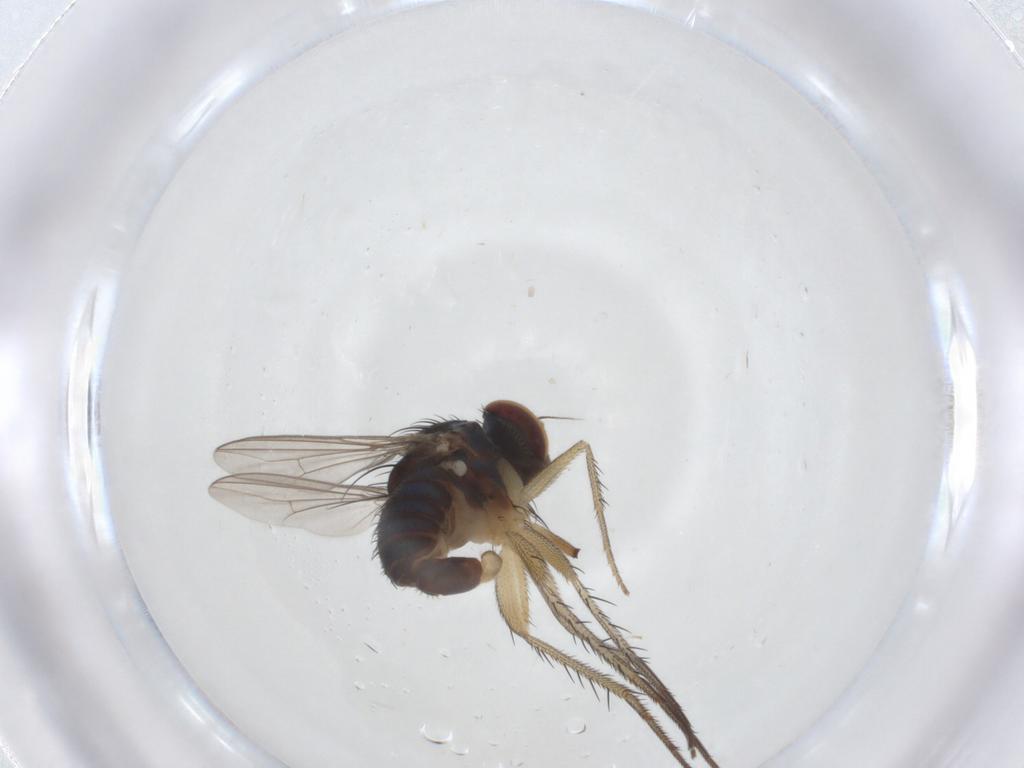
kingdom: Animalia
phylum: Arthropoda
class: Insecta
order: Diptera
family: Dolichopodidae
